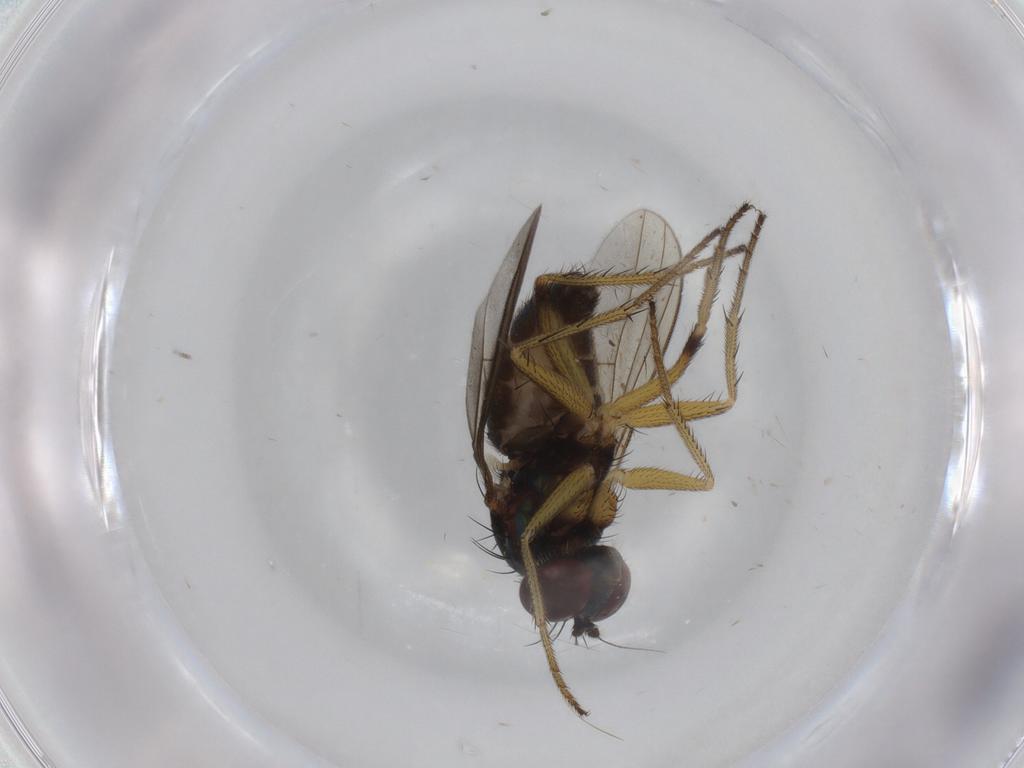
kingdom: Animalia
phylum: Arthropoda
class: Insecta
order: Diptera
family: Dolichopodidae
